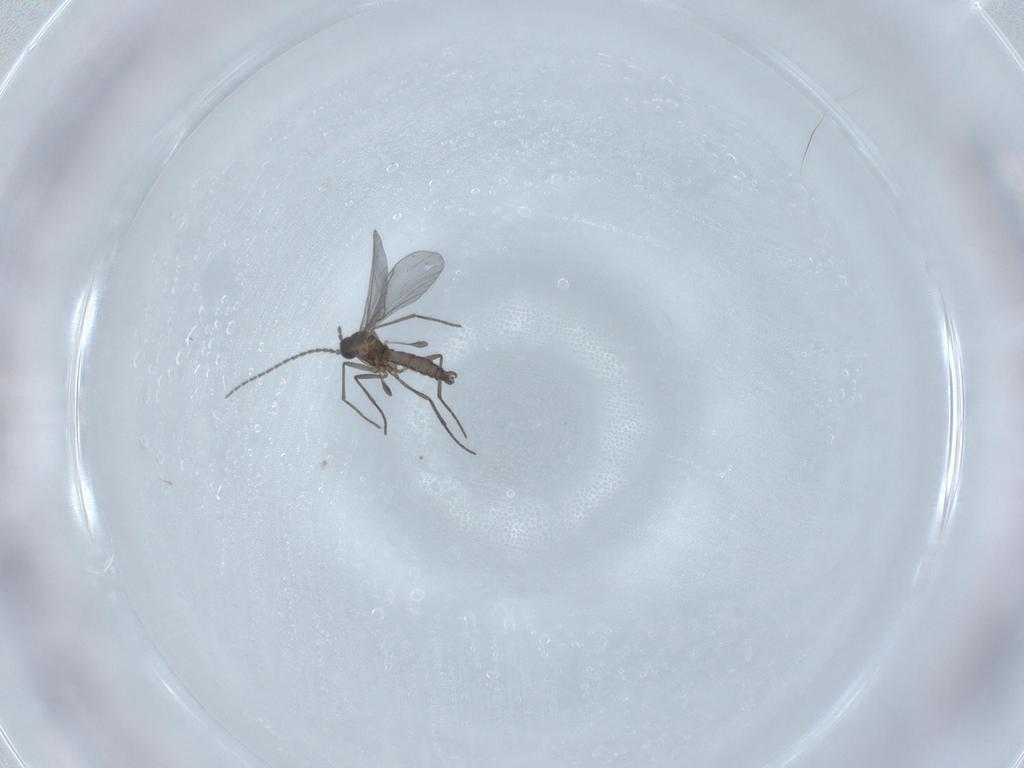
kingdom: Animalia
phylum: Arthropoda
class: Insecta
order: Diptera
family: Sciaridae
